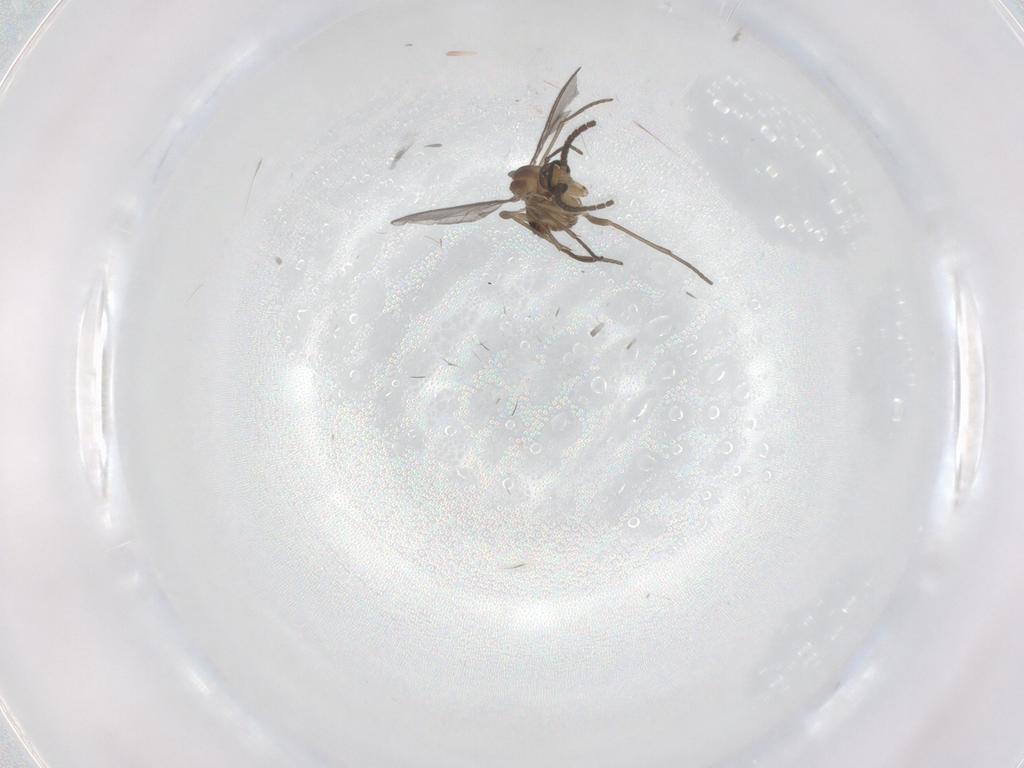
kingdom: Animalia
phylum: Arthropoda
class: Insecta
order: Diptera
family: Sciaridae
